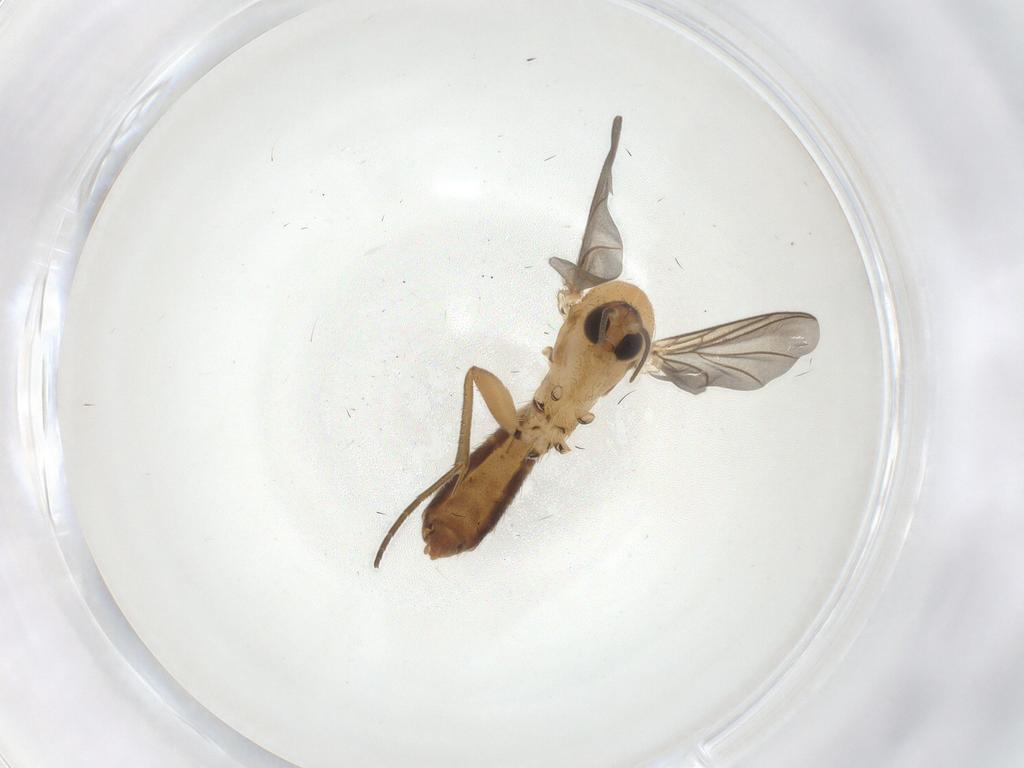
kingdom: Animalia
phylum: Arthropoda
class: Insecta
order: Diptera
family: Mycetophilidae
